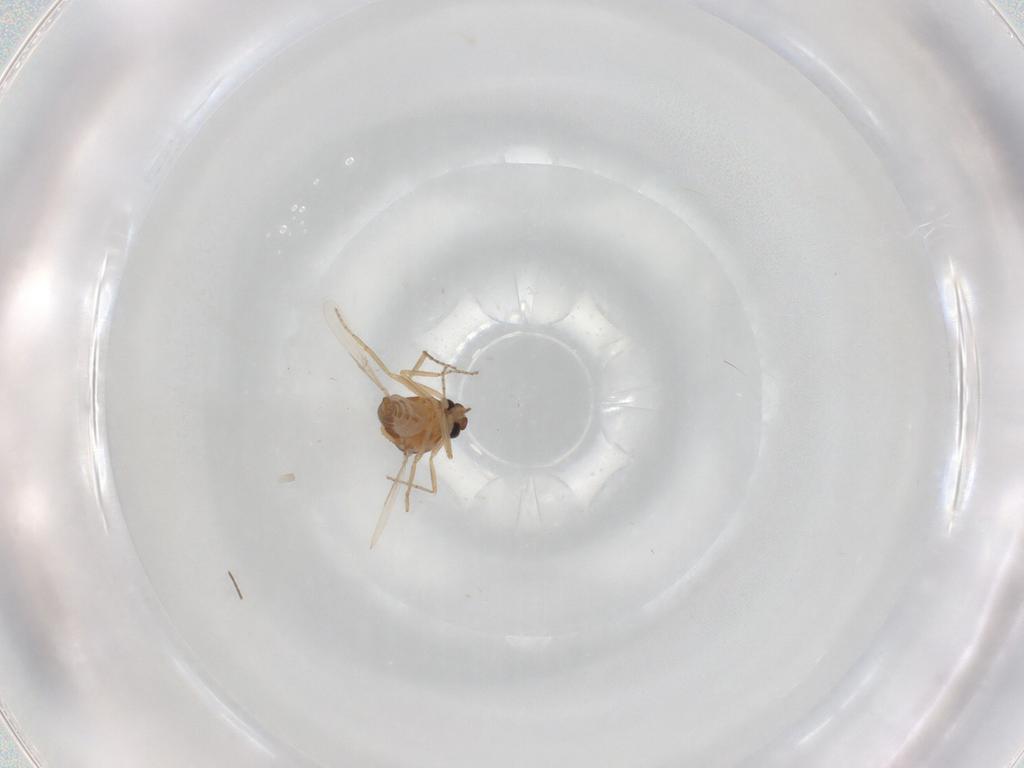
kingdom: Animalia
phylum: Arthropoda
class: Insecta
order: Diptera
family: Ceratopogonidae
